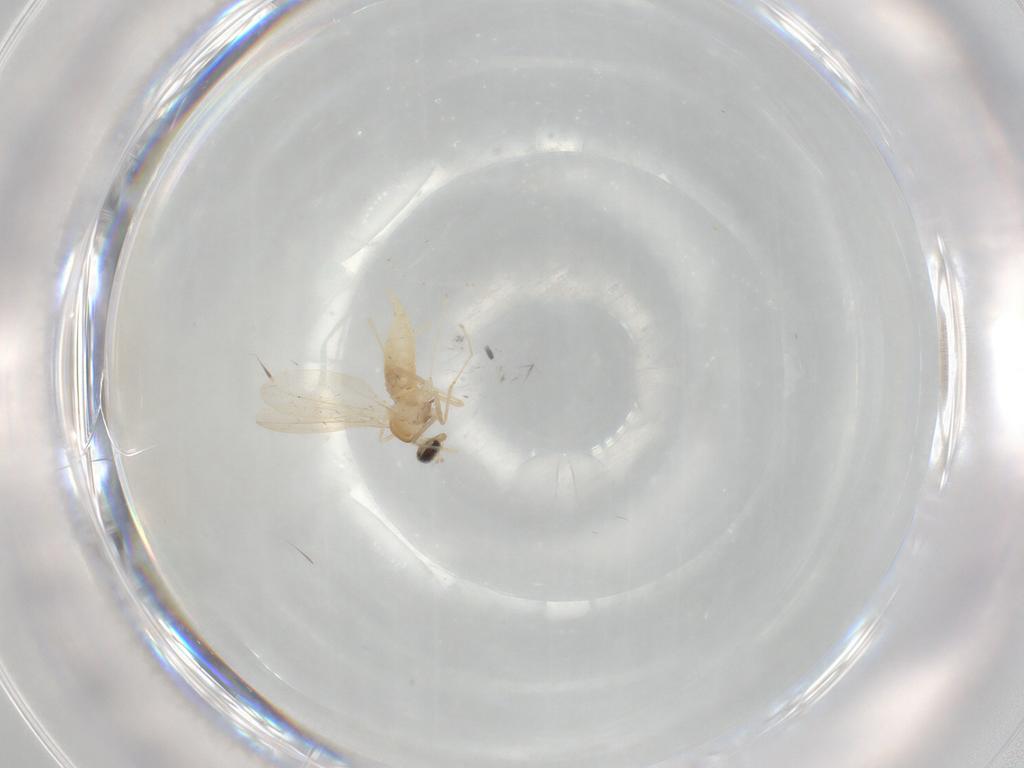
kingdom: Animalia
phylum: Arthropoda
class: Insecta
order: Diptera
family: Cecidomyiidae
